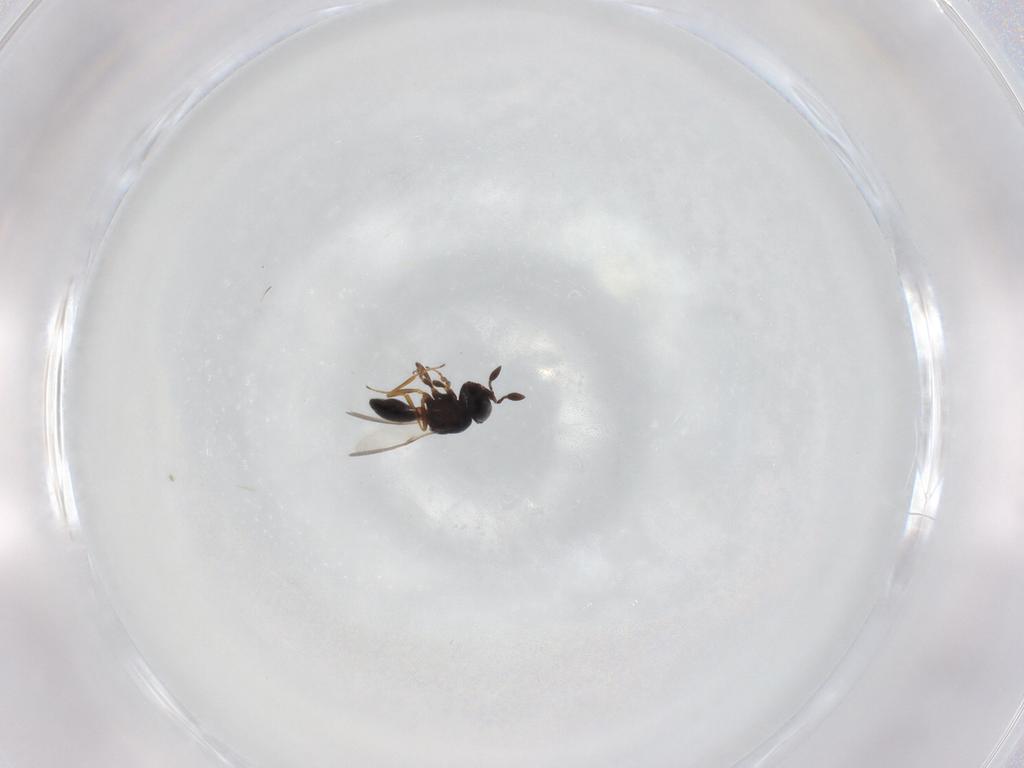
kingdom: Animalia
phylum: Arthropoda
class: Arachnida
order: Araneae
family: Pholcidae
